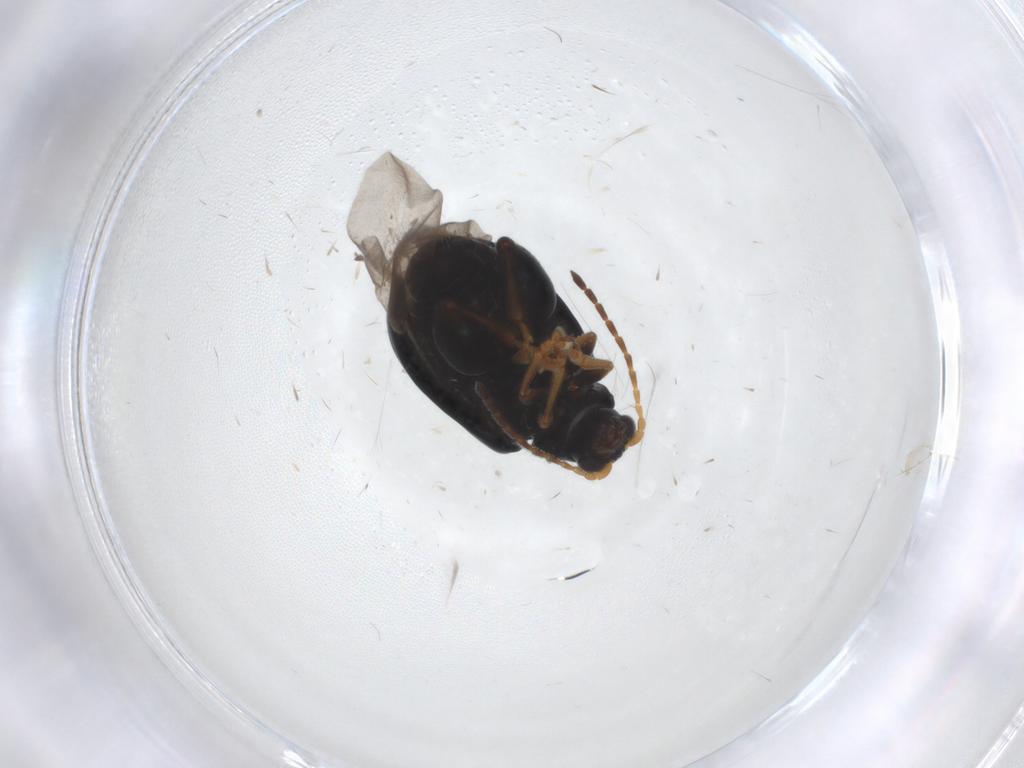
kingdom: Animalia
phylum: Arthropoda
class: Insecta
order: Coleoptera
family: Chrysomelidae
